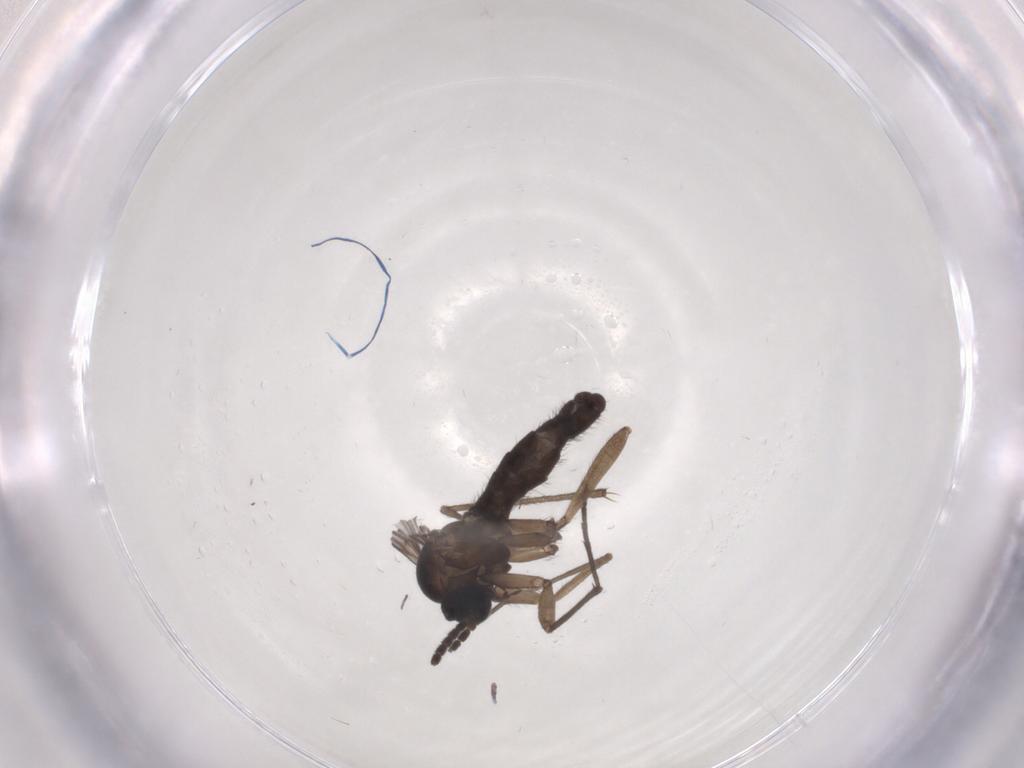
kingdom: Animalia
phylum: Arthropoda
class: Insecta
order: Diptera
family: Sciaridae
